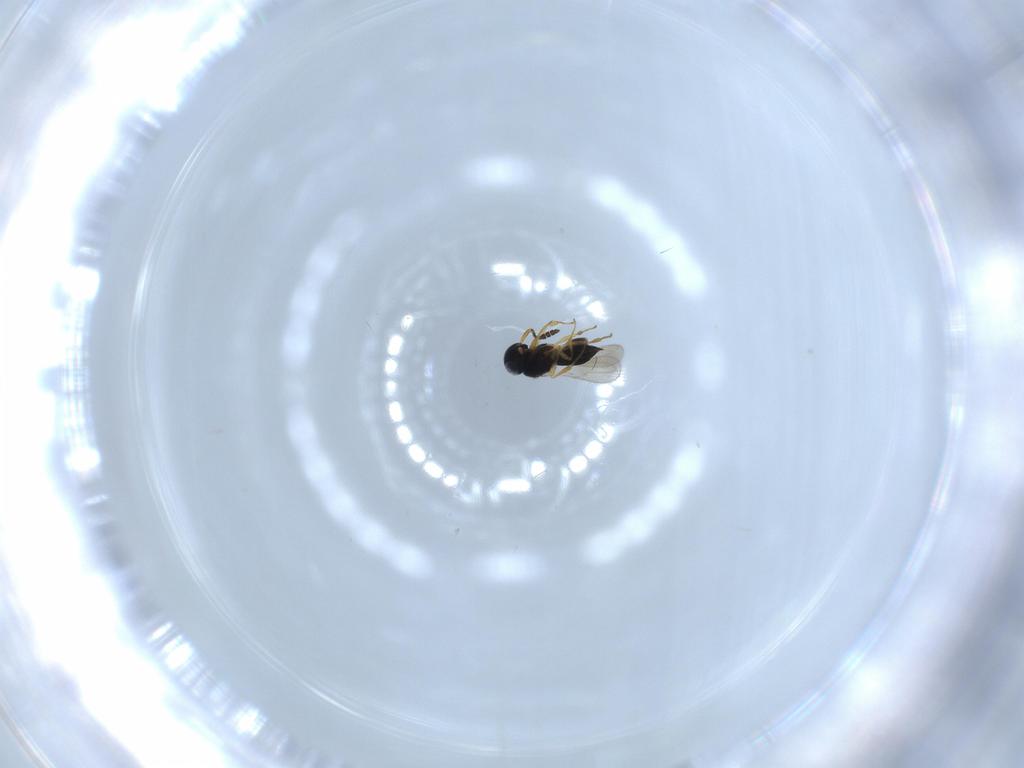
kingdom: Animalia
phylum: Arthropoda
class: Insecta
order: Hymenoptera
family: Scelionidae
